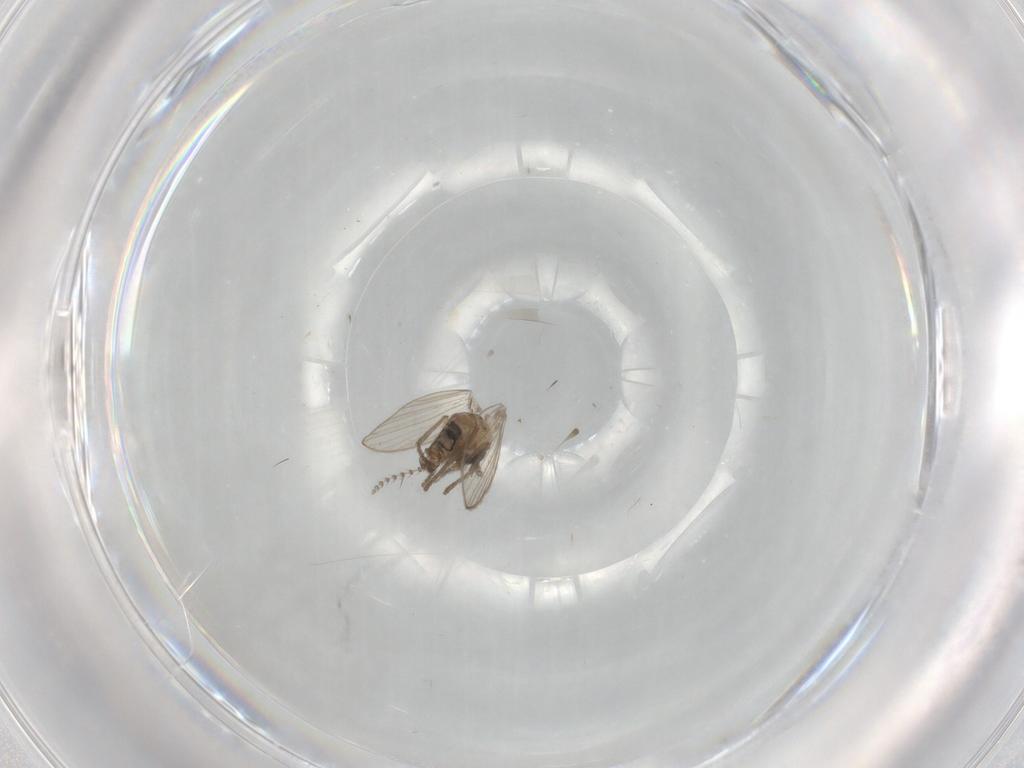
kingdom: Animalia
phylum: Arthropoda
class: Insecta
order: Diptera
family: Psychodidae
